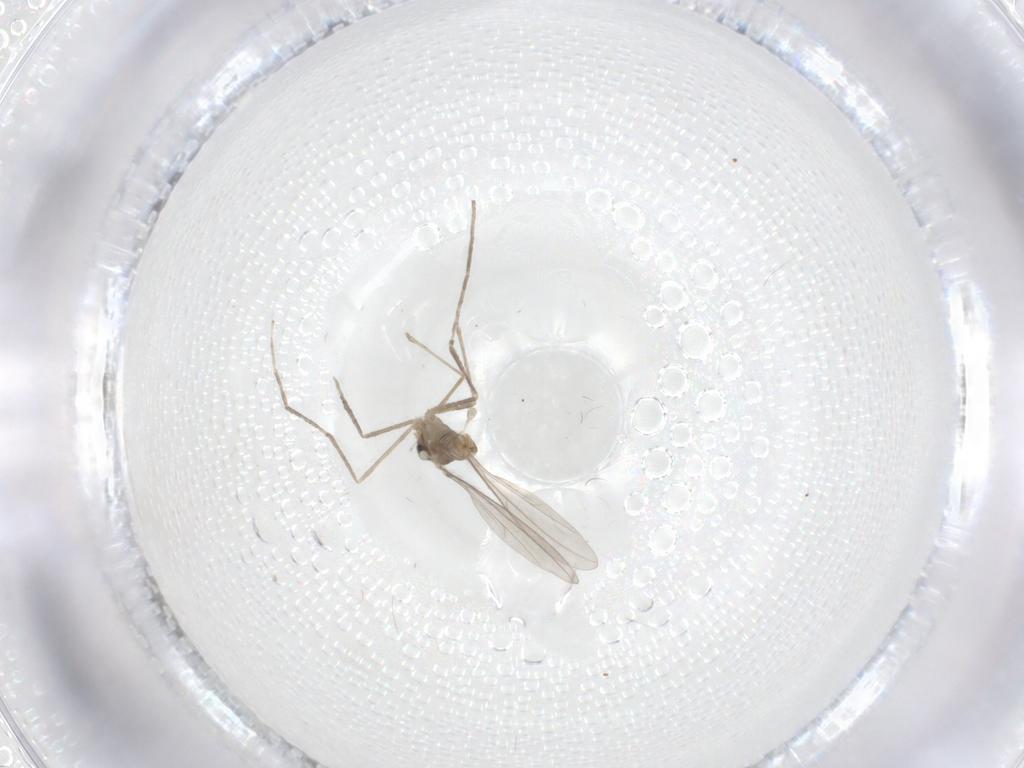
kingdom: Animalia
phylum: Arthropoda
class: Insecta
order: Diptera
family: Cecidomyiidae
